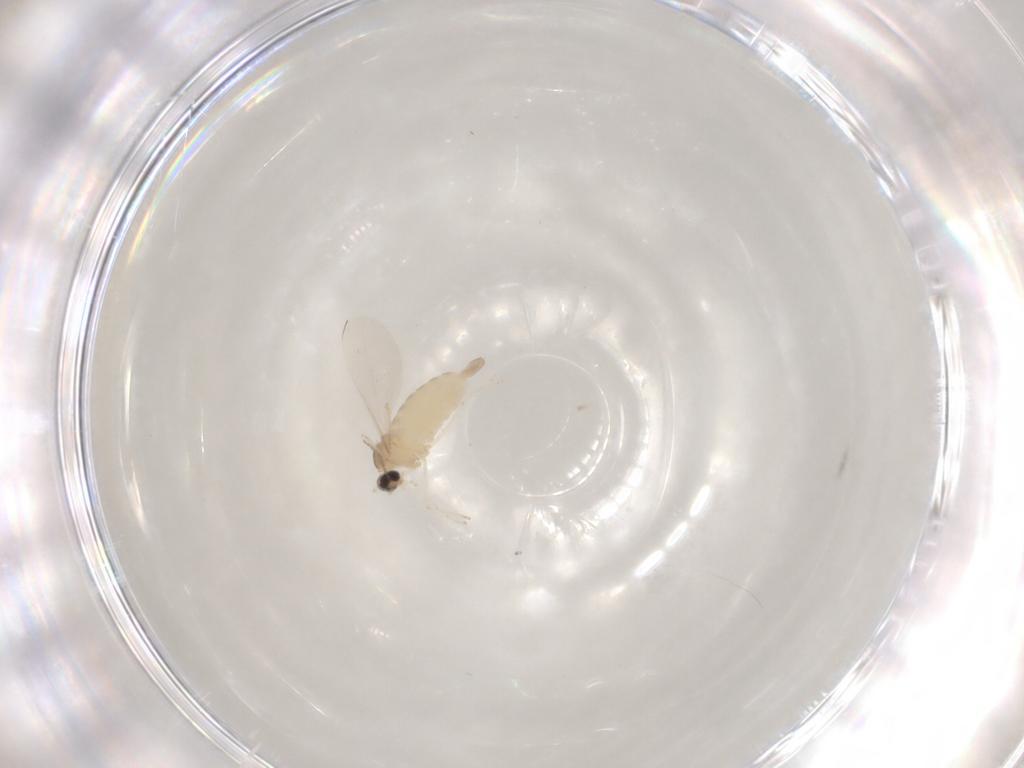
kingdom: Animalia
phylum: Arthropoda
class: Insecta
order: Diptera
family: Cecidomyiidae
